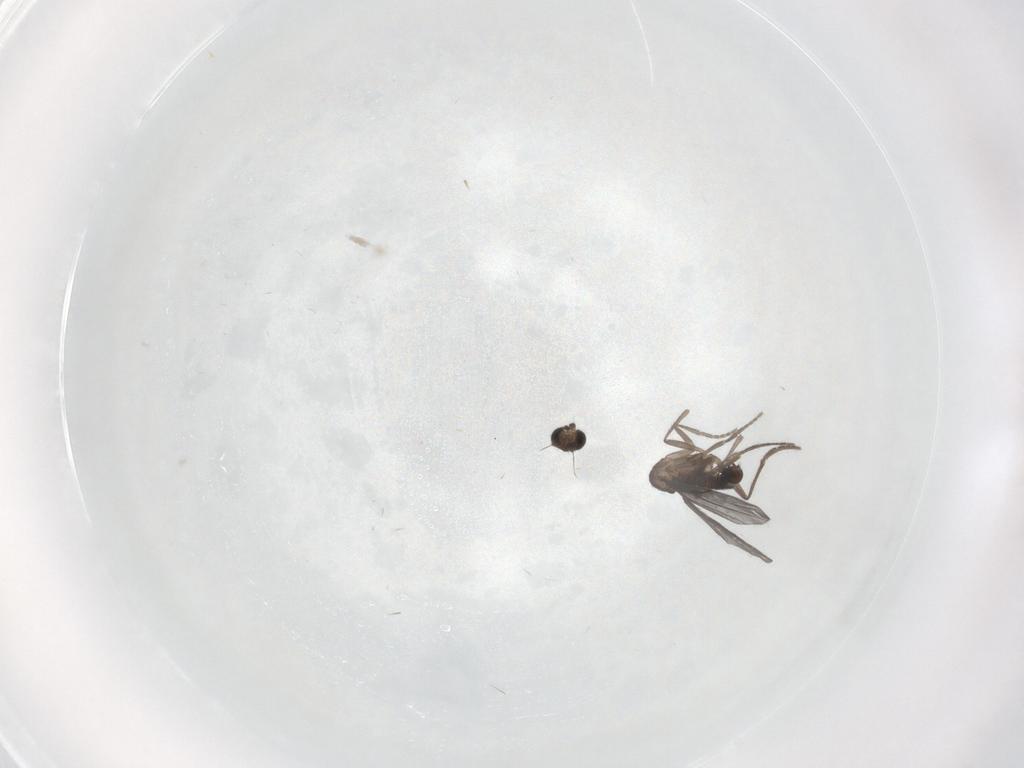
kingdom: Animalia
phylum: Arthropoda
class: Insecta
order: Diptera
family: Phoridae
